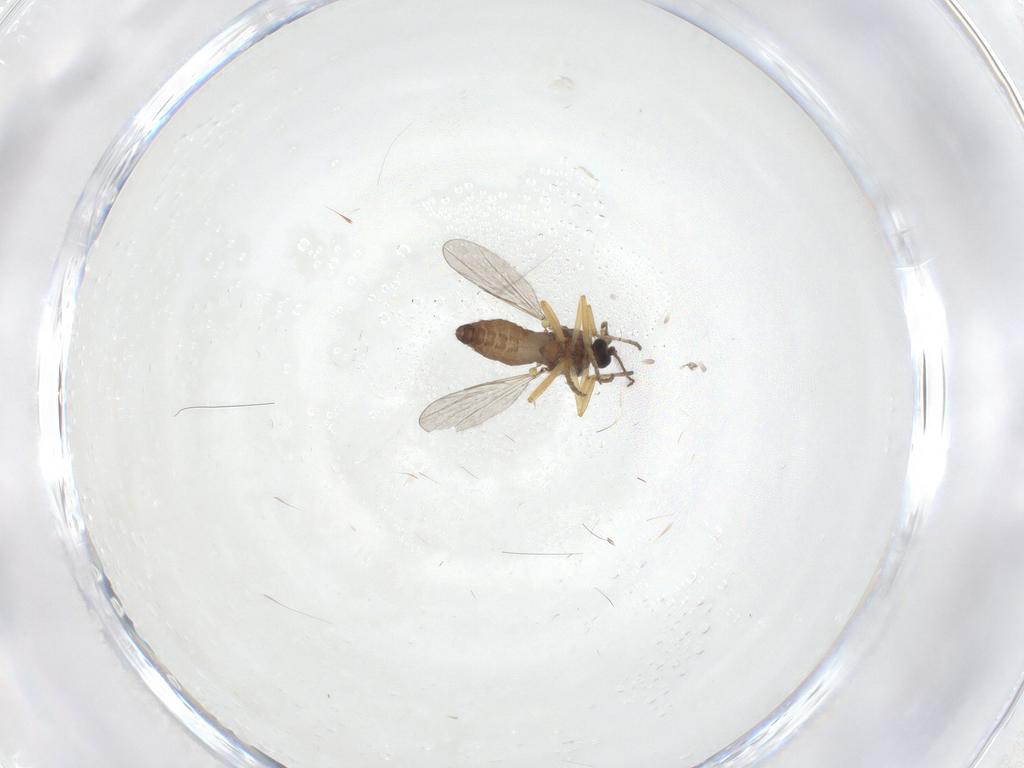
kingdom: Animalia
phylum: Arthropoda
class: Insecta
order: Diptera
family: Ceratopogonidae
